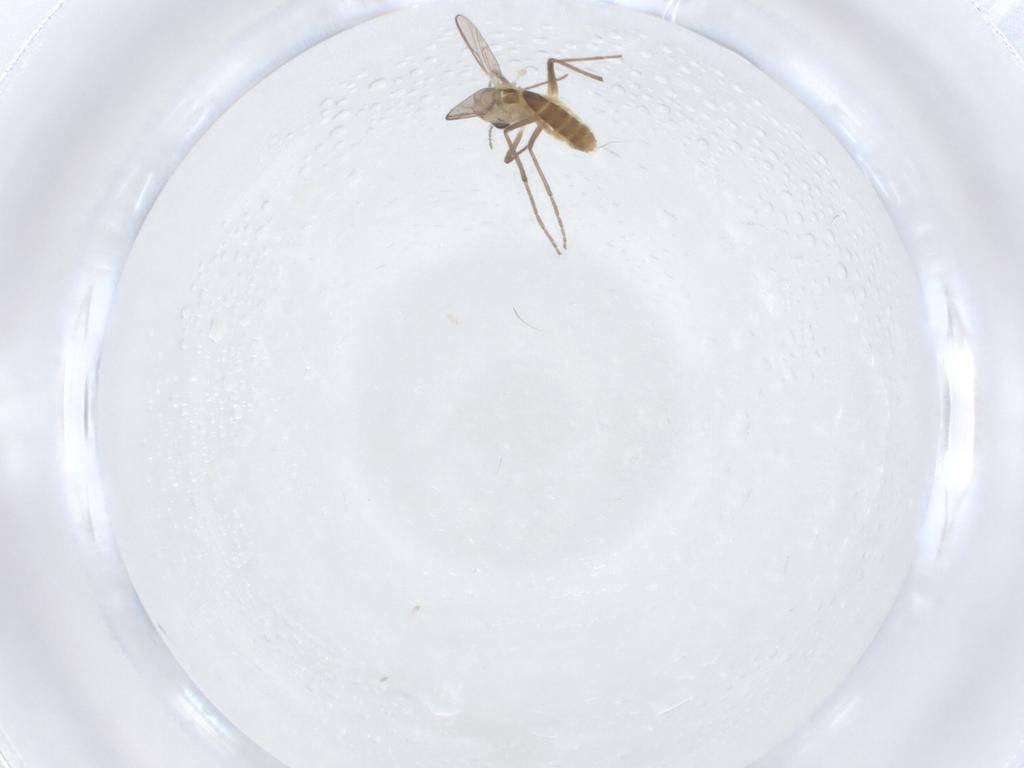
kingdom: Animalia
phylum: Arthropoda
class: Insecta
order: Diptera
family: Chironomidae
